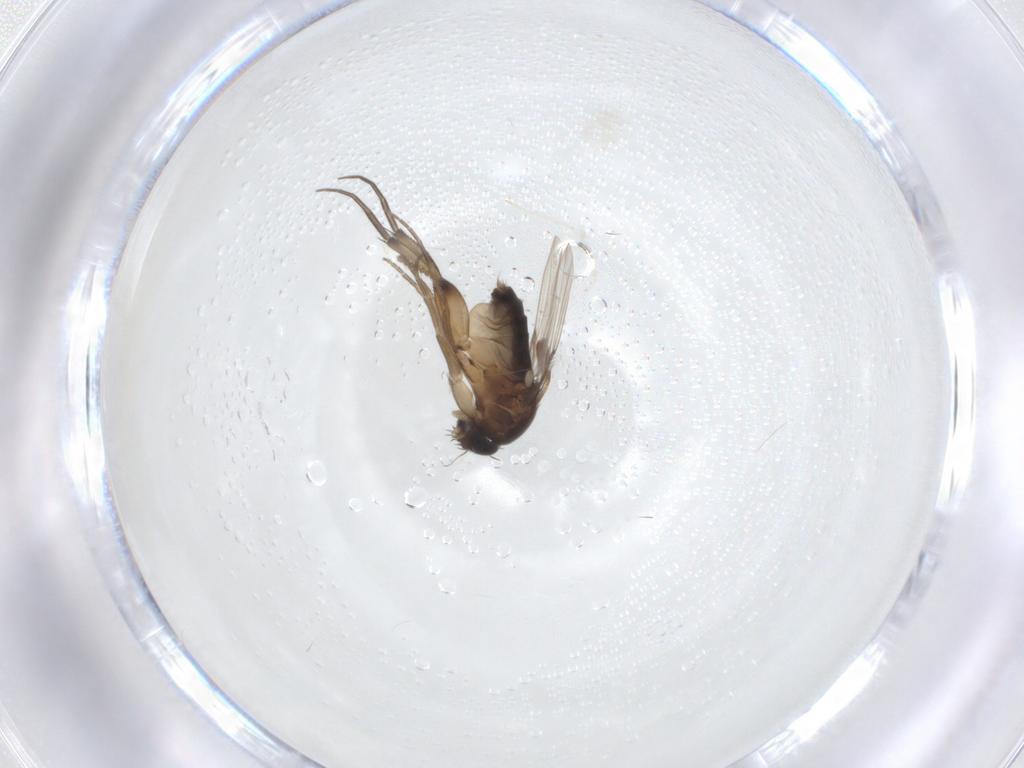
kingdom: Animalia
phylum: Arthropoda
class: Insecta
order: Diptera
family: Phoridae
